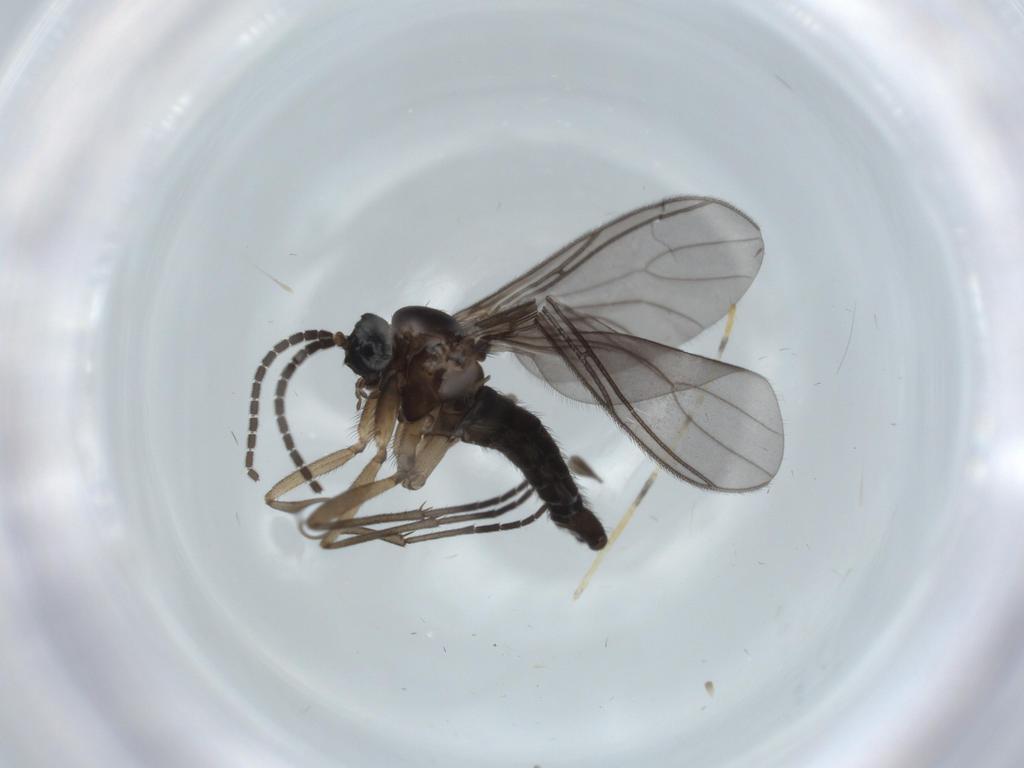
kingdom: Animalia
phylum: Arthropoda
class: Insecta
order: Diptera
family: Sciaridae
